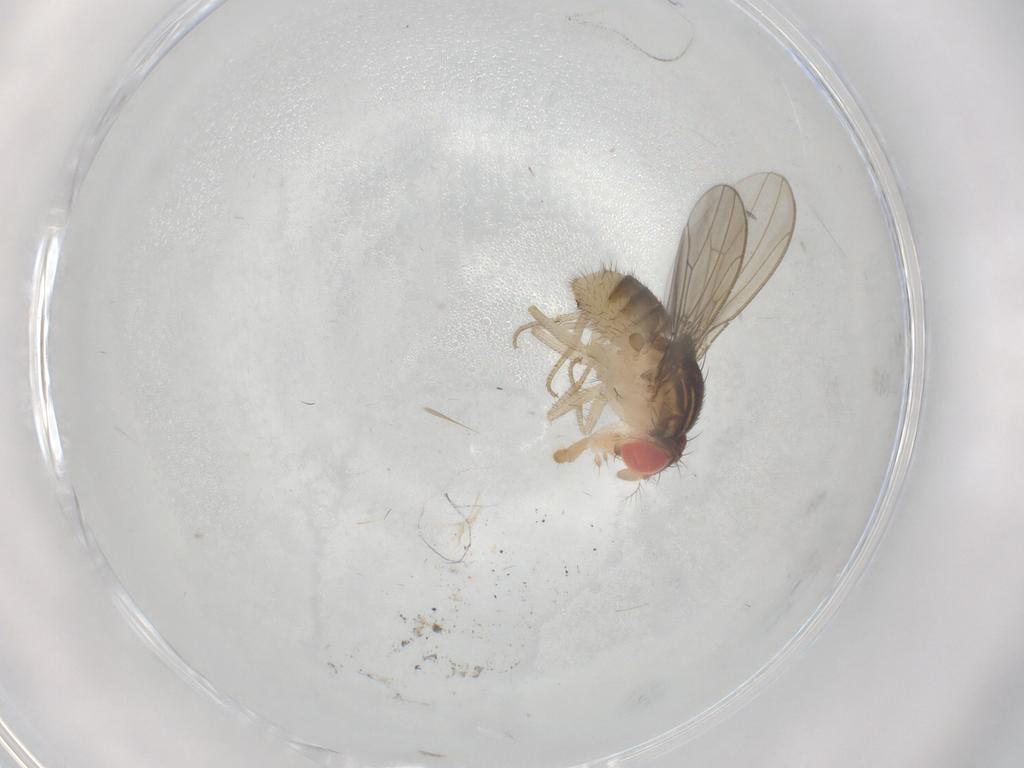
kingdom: Animalia
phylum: Arthropoda
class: Insecta
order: Diptera
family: Drosophilidae
